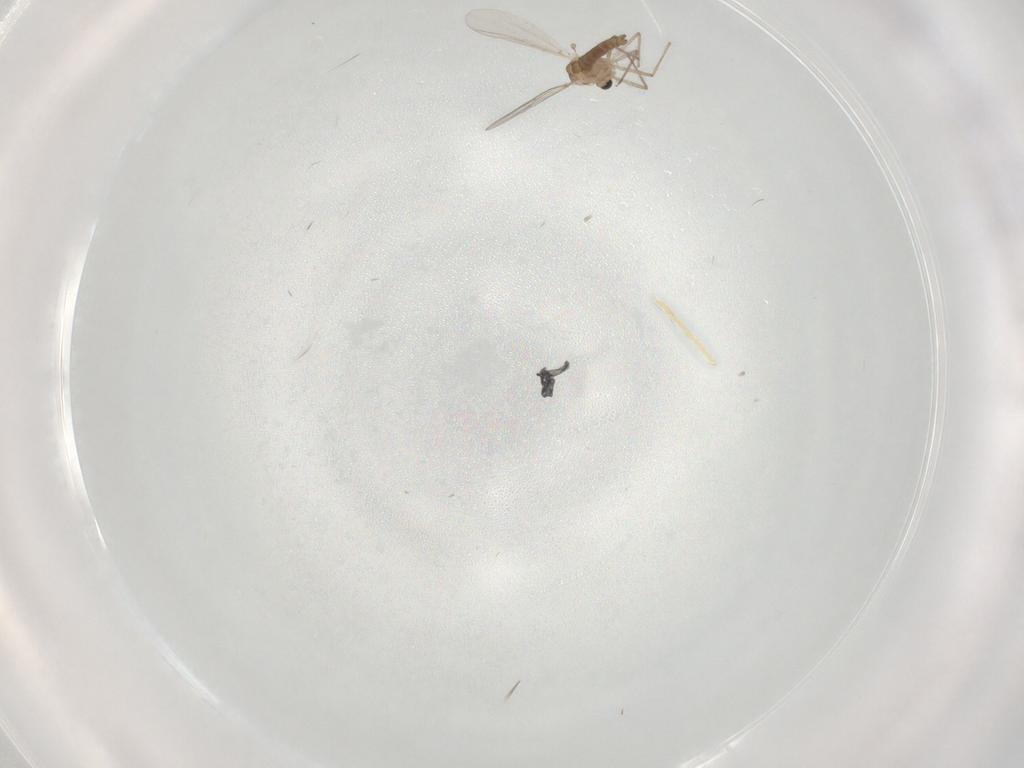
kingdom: Animalia
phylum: Arthropoda
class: Insecta
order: Diptera
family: Chironomidae
